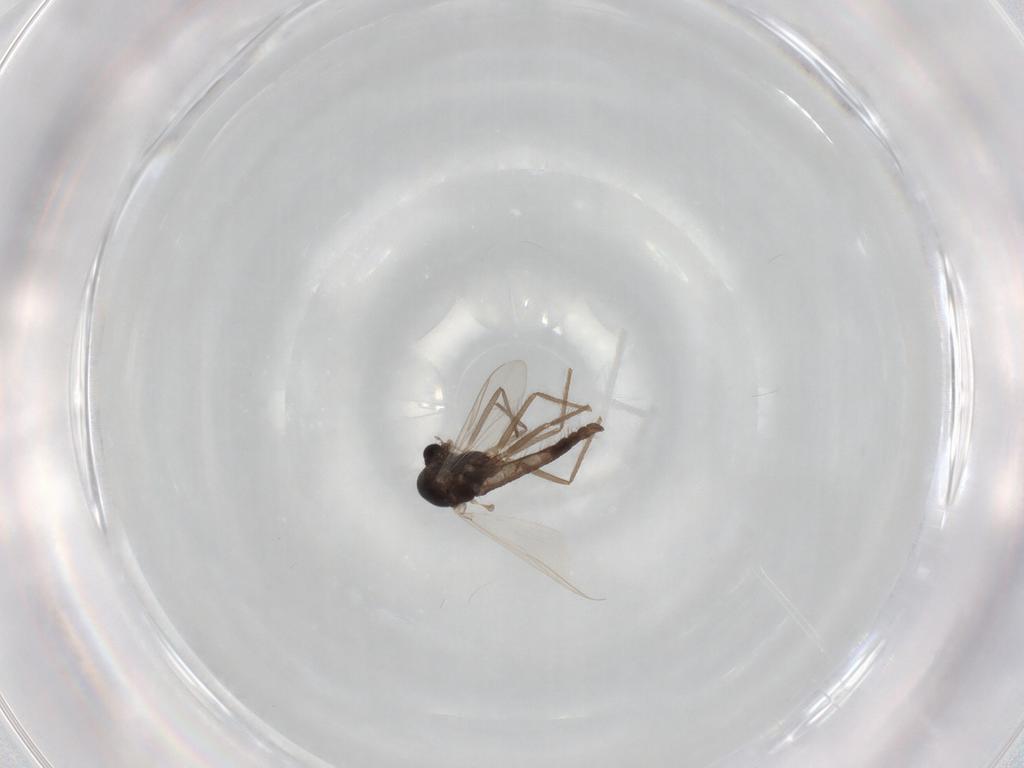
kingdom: Animalia
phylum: Arthropoda
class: Insecta
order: Diptera
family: Chironomidae
